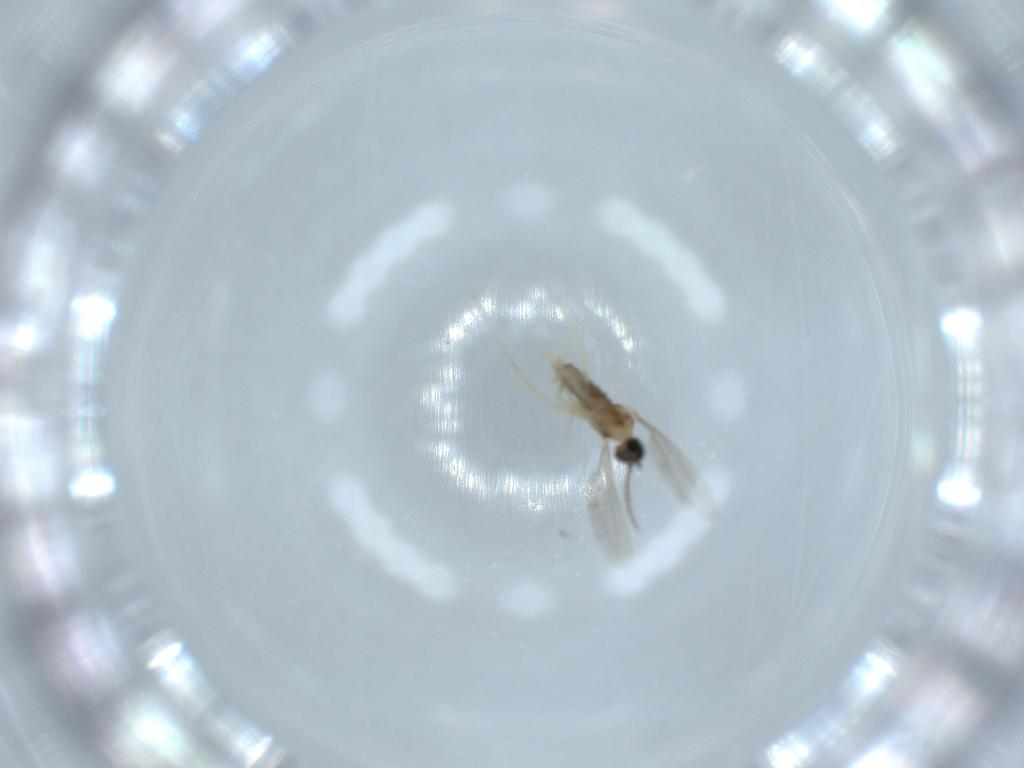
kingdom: Animalia
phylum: Arthropoda
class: Insecta
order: Diptera
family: Cecidomyiidae
